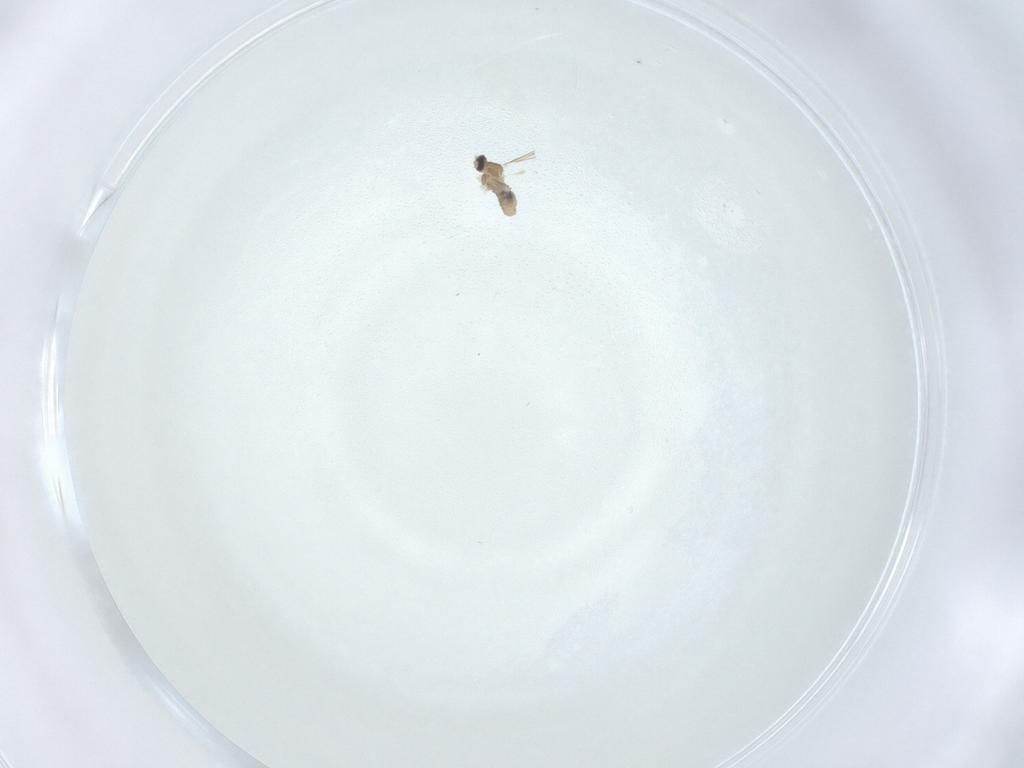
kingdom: Animalia
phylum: Arthropoda
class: Insecta
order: Diptera
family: Cecidomyiidae
